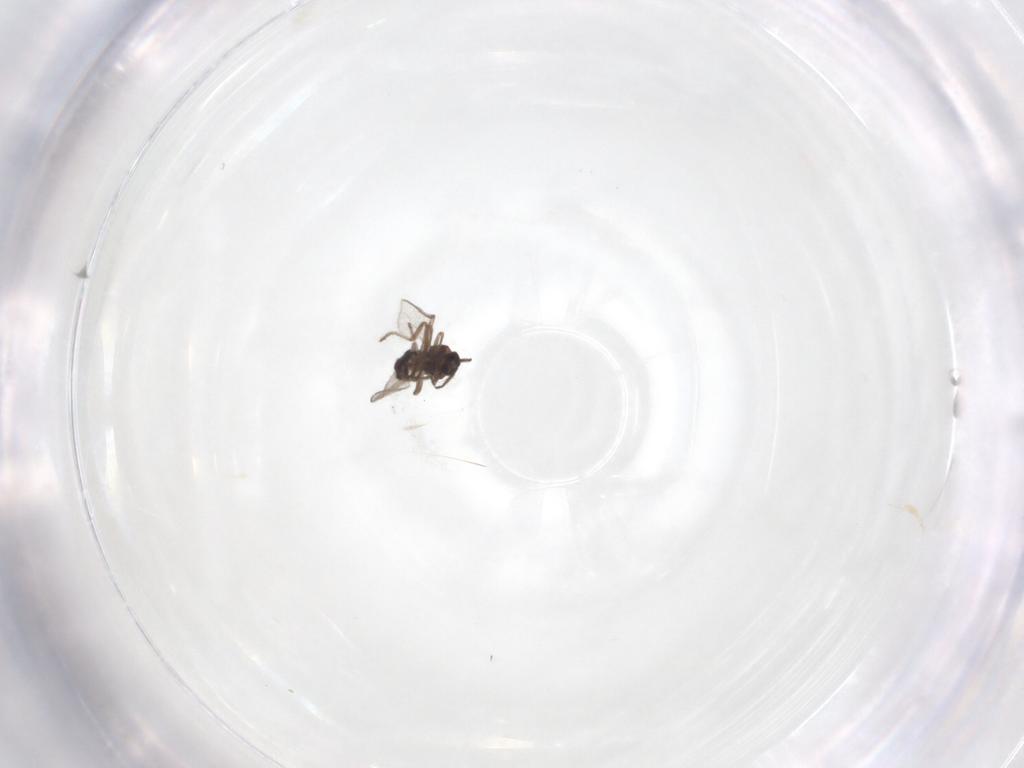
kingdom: Animalia
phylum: Arthropoda
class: Insecta
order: Diptera
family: Ceratopogonidae
